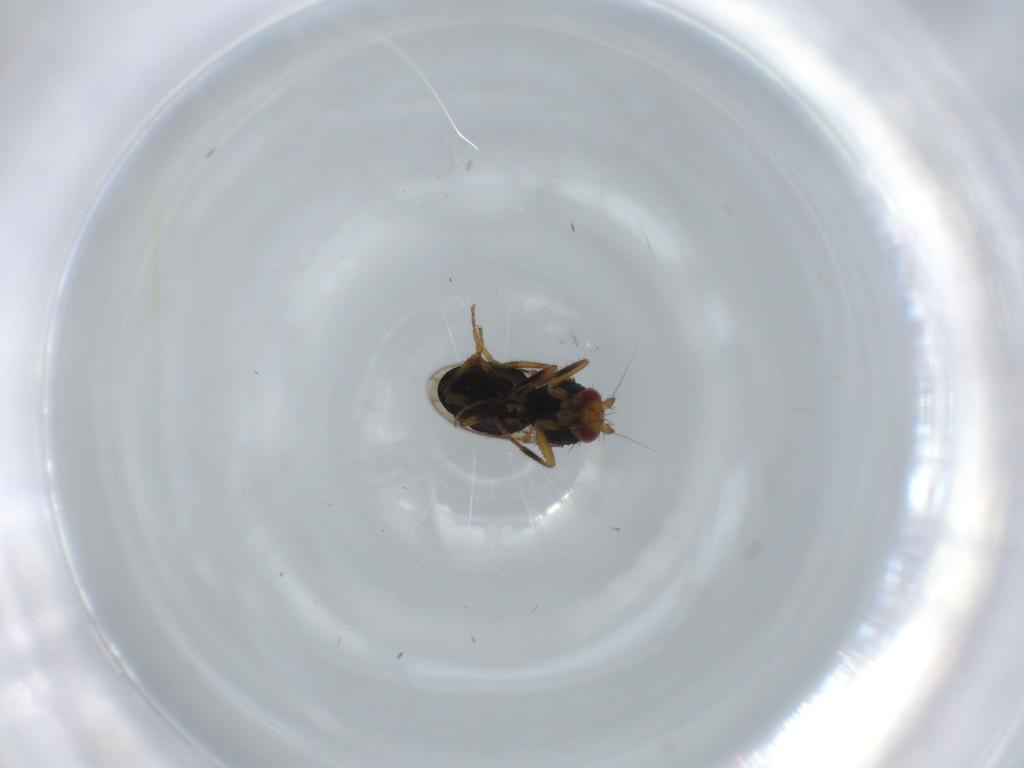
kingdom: Animalia
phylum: Arthropoda
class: Insecta
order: Diptera
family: Sphaeroceridae
